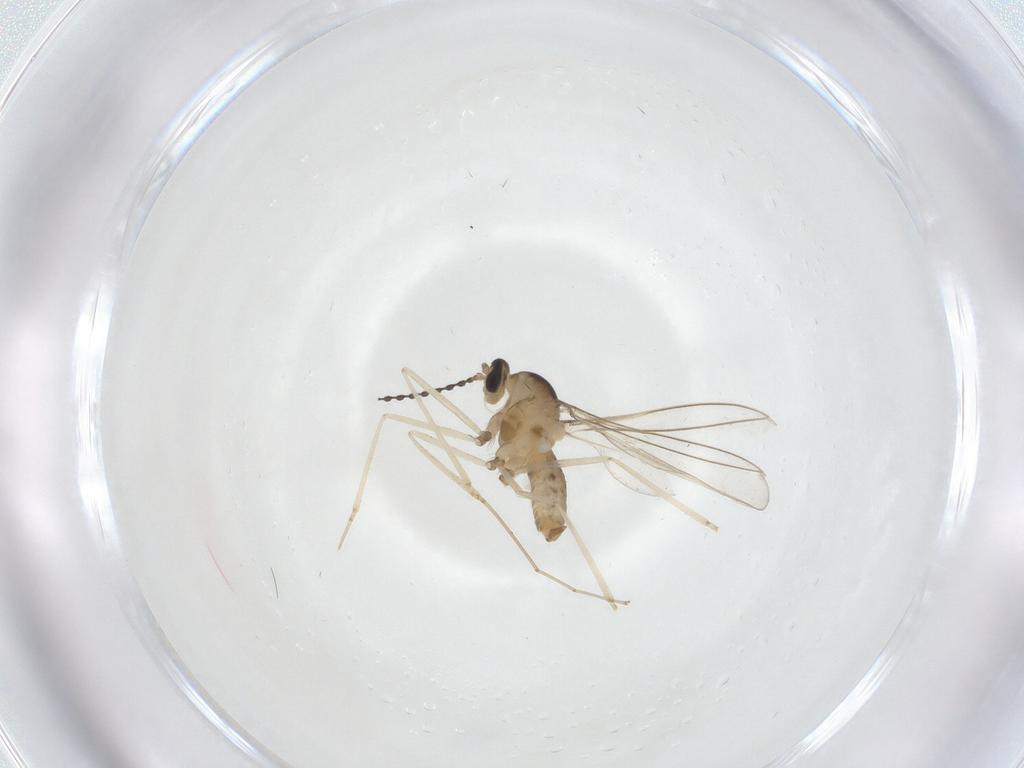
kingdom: Animalia
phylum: Arthropoda
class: Insecta
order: Diptera
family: Cecidomyiidae
